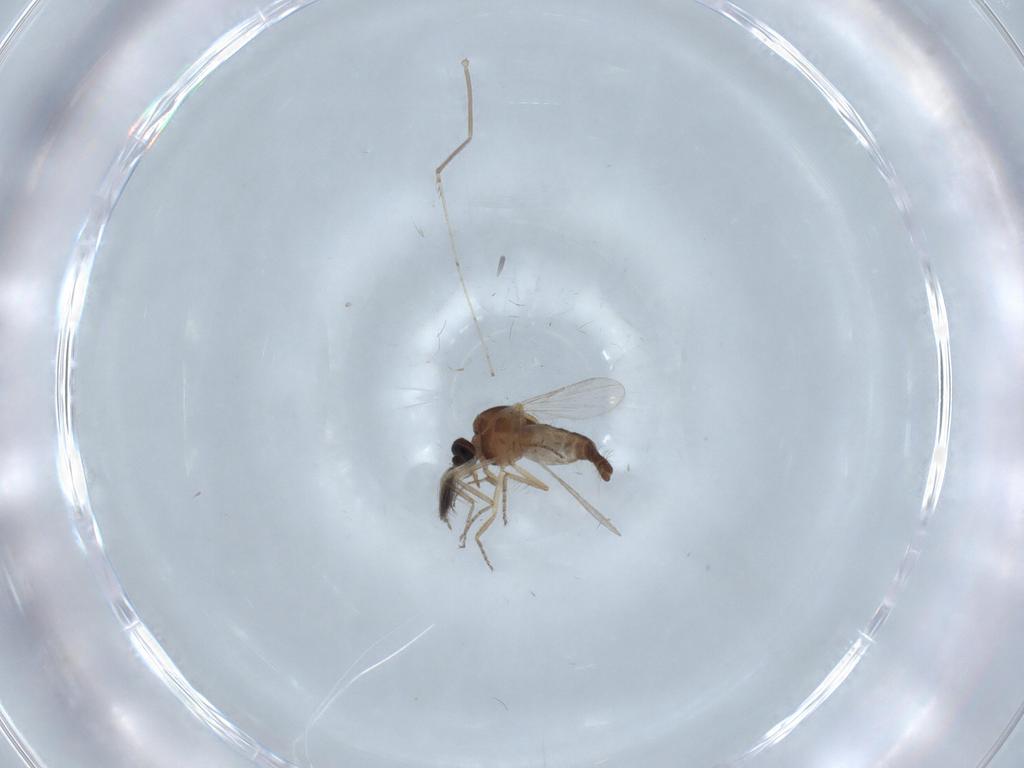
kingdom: Animalia
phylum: Arthropoda
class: Insecta
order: Diptera
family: Ceratopogonidae
